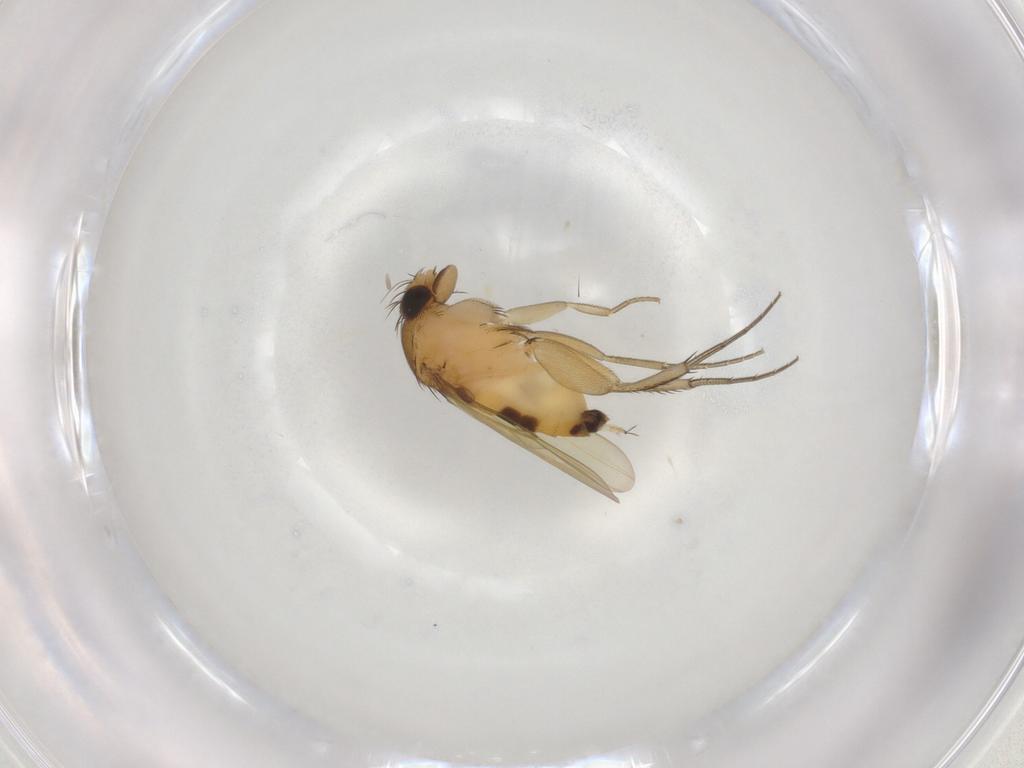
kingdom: Animalia
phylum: Arthropoda
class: Insecta
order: Diptera
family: Phoridae
